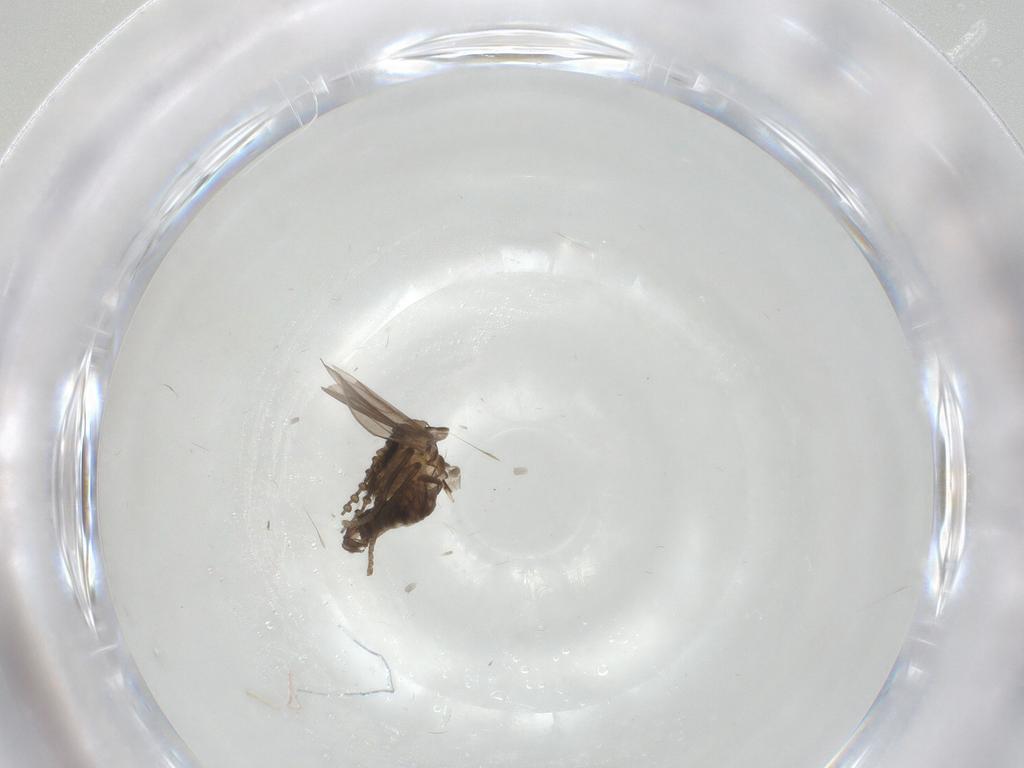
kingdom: Animalia
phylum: Arthropoda
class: Insecta
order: Diptera
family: Psychodidae
